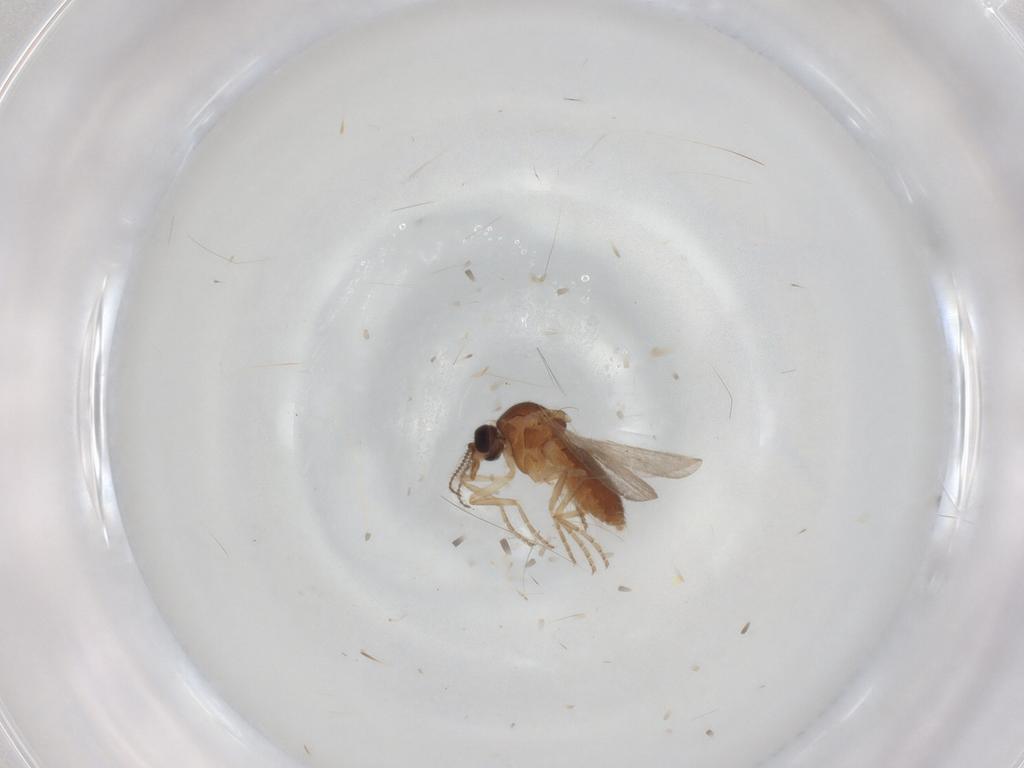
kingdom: Animalia
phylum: Arthropoda
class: Insecta
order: Diptera
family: Ceratopogonidae
